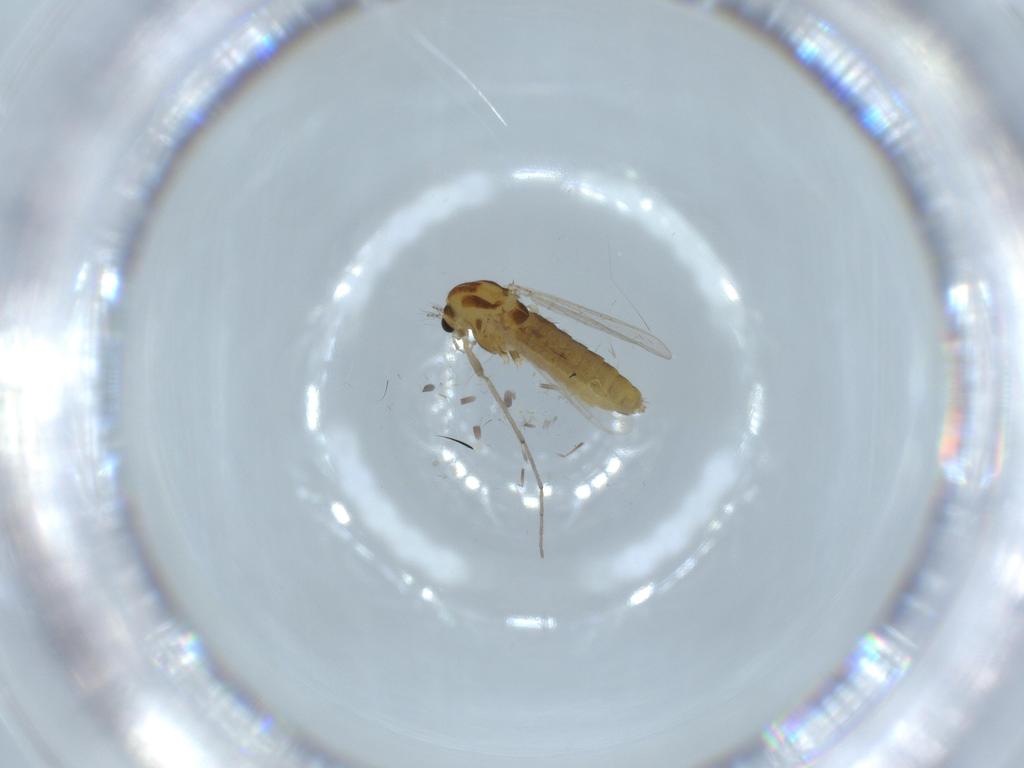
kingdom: Animalia
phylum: Arthropoda
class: Insecta
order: Diptera
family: Chironomidae
